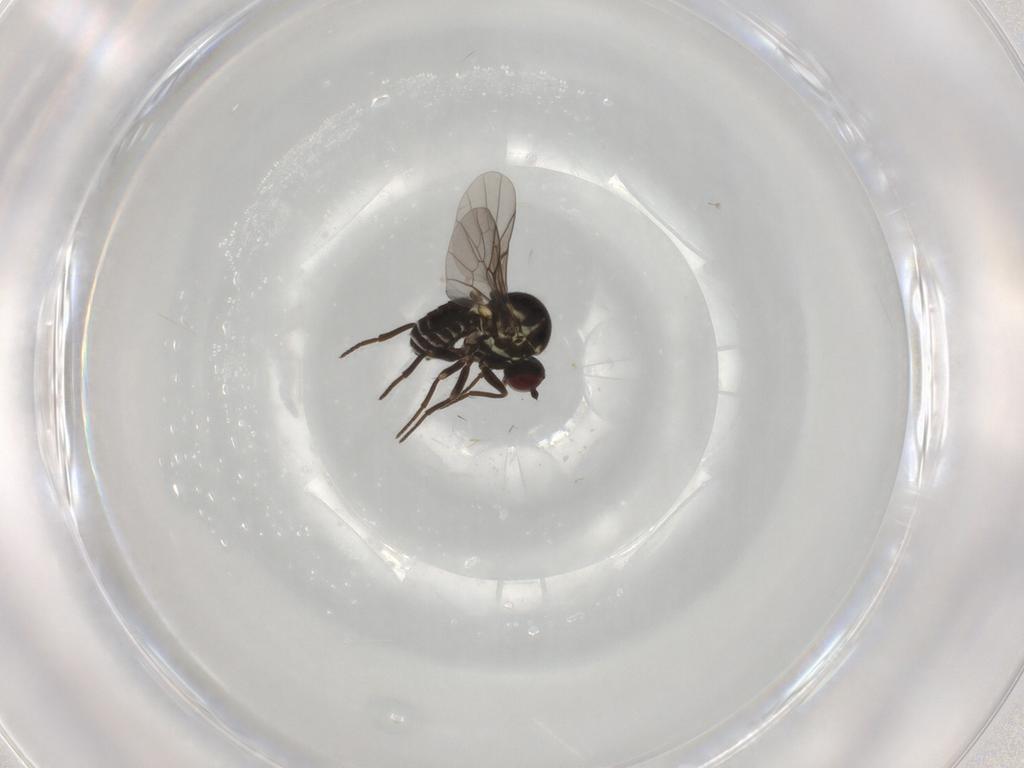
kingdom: Animalia
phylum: Arthropoda
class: Insecta
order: Diptera
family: Mythicomyiidae
